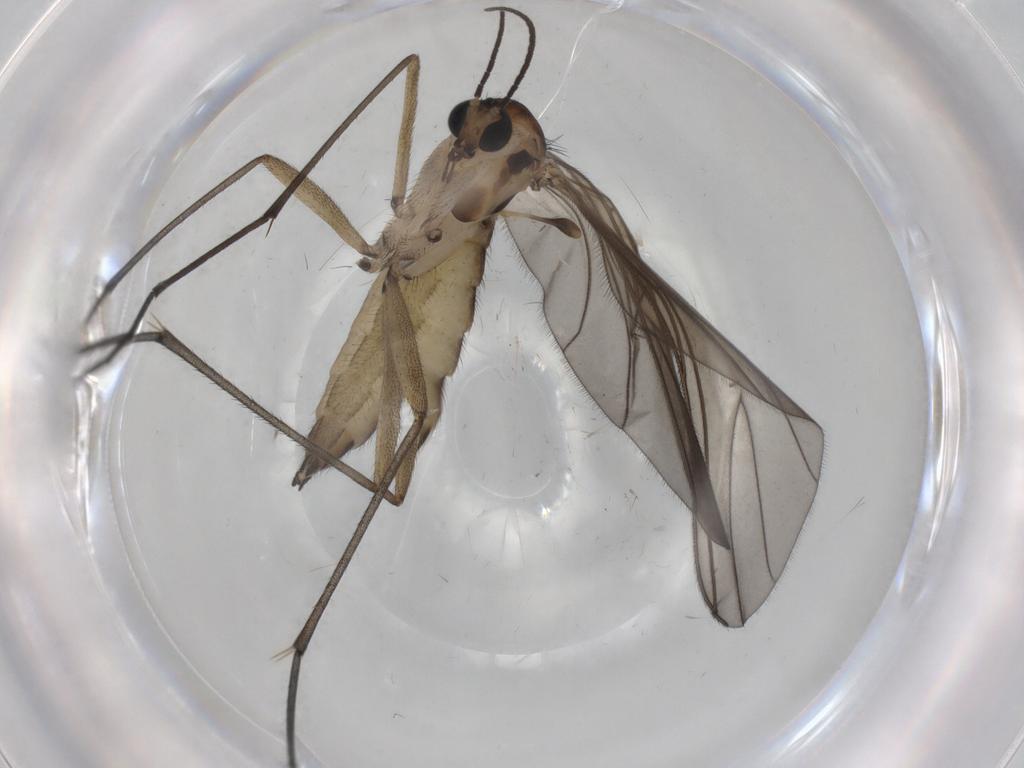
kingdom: Animalia
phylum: Arthropoda
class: Insecta
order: Diptera
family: Sciaridae
